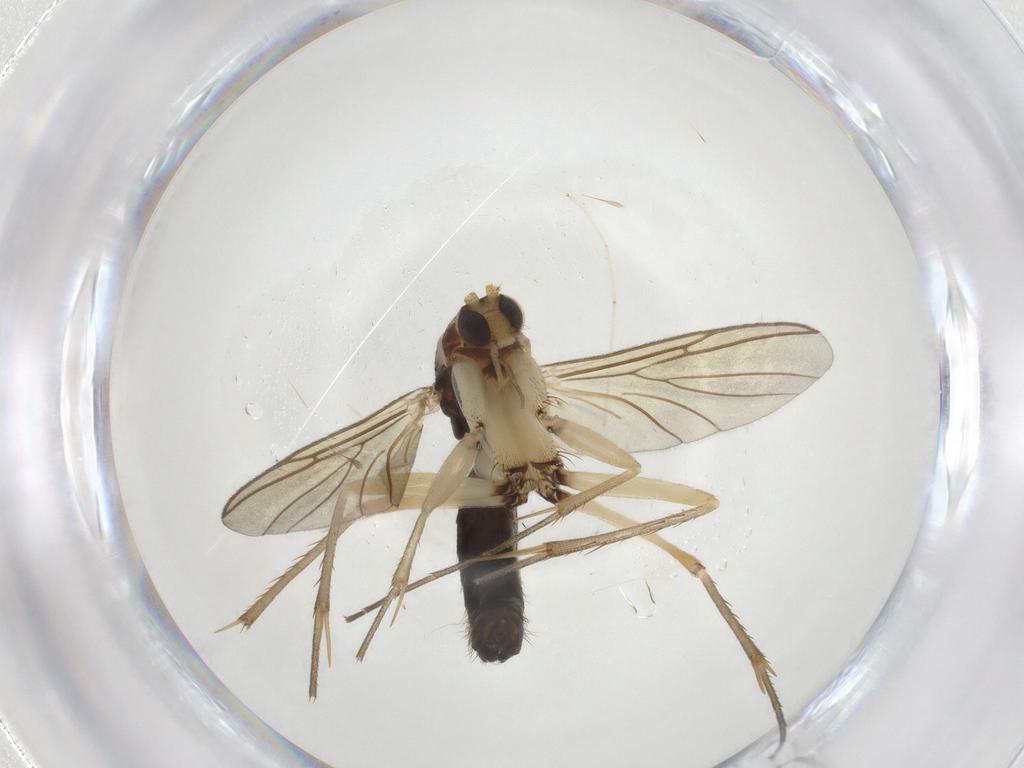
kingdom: Animalia
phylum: Arthropoda
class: Insecta
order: Diptera
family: Mycetophilidae
